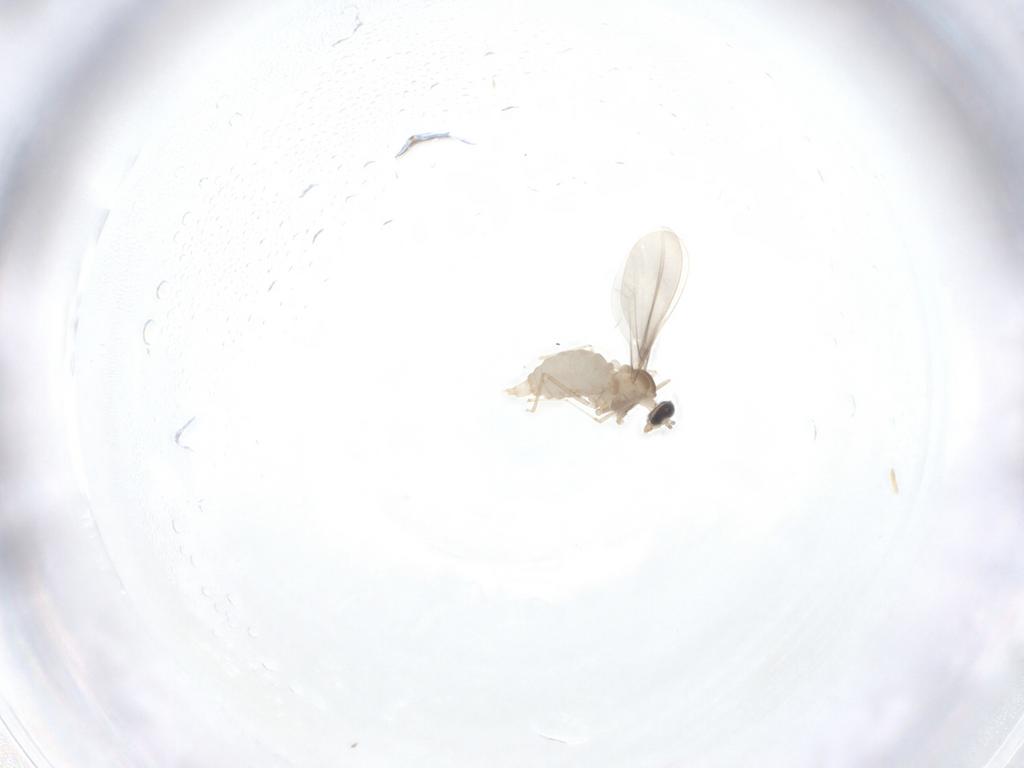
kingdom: Animalia
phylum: Arthropoda
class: Insecta
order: Diptera
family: Cecidomyiidae
